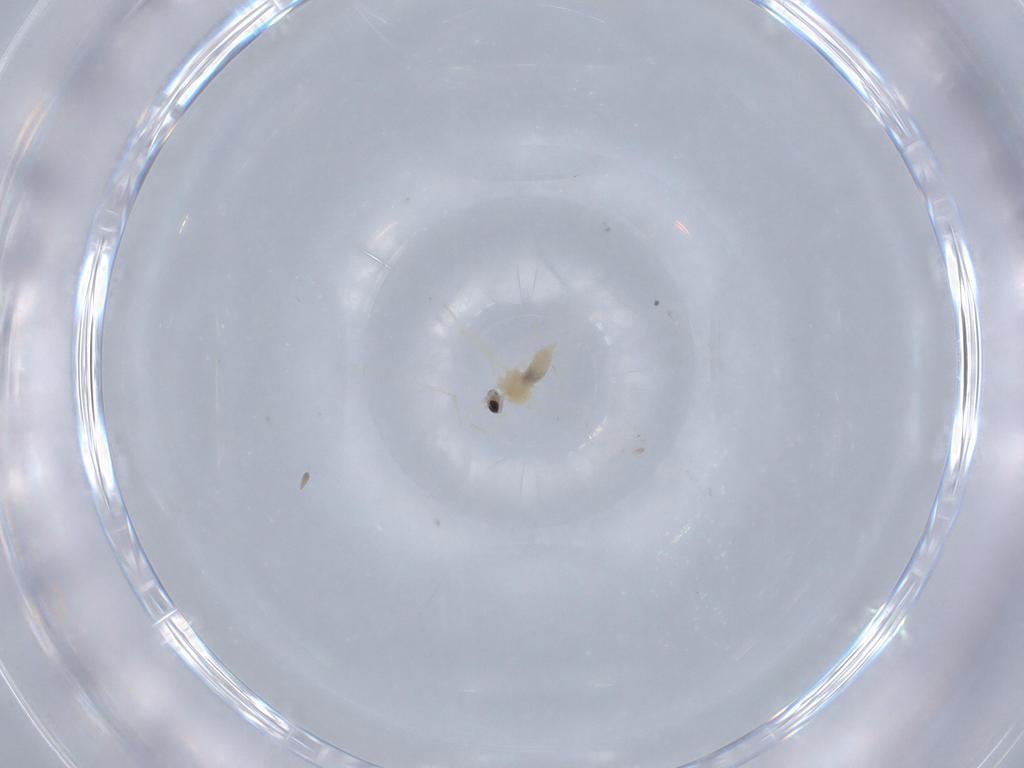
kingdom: Animalia
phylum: Arthropoda
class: Insecta
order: Diptera
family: Cecidomyiidae
